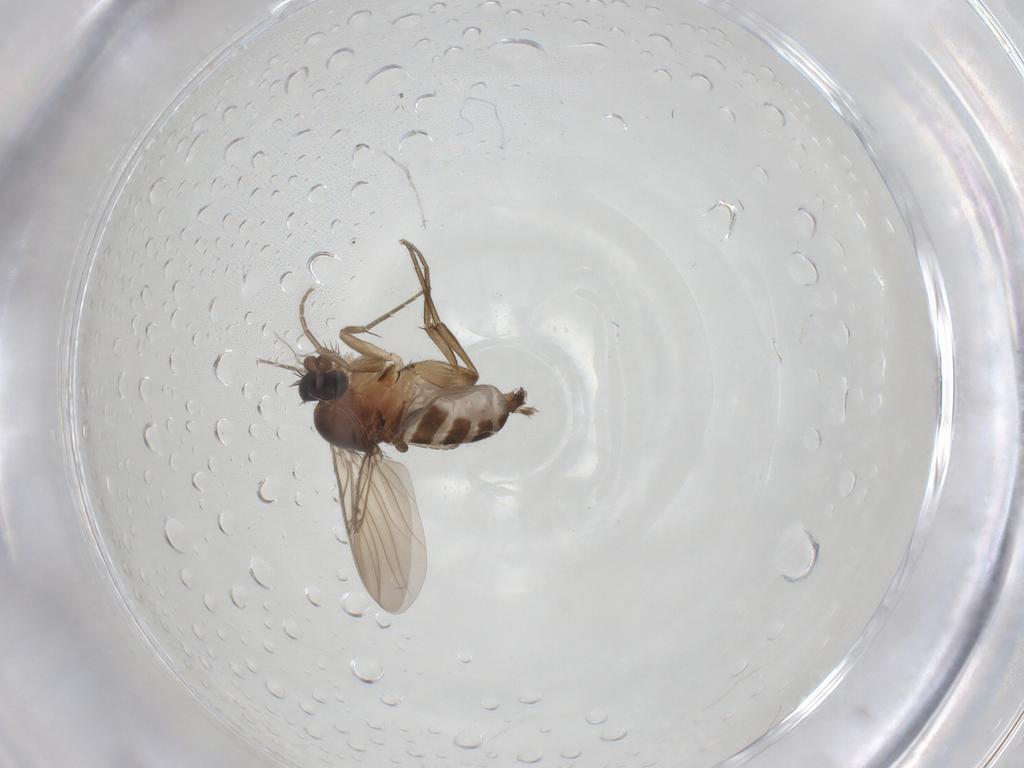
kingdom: Animalia
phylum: Arthropoda
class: Insecta
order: Diptera
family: Phoridae
